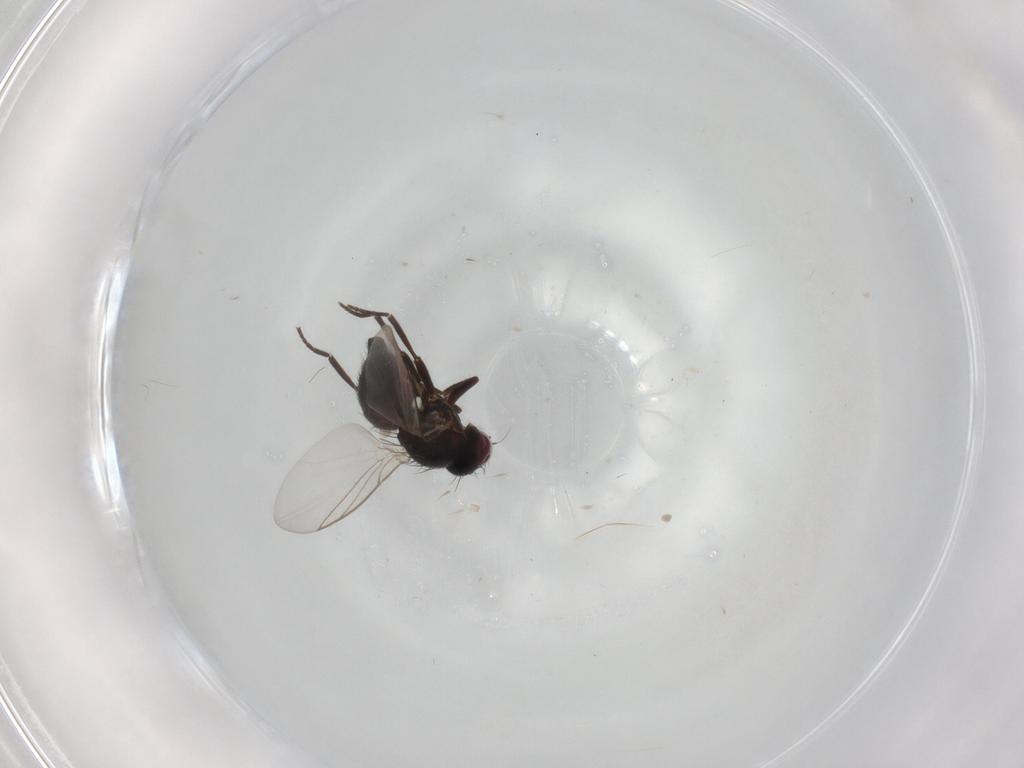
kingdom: Animalia
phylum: Arthropoda
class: Insecta
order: Diptera
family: Agromyzidae
